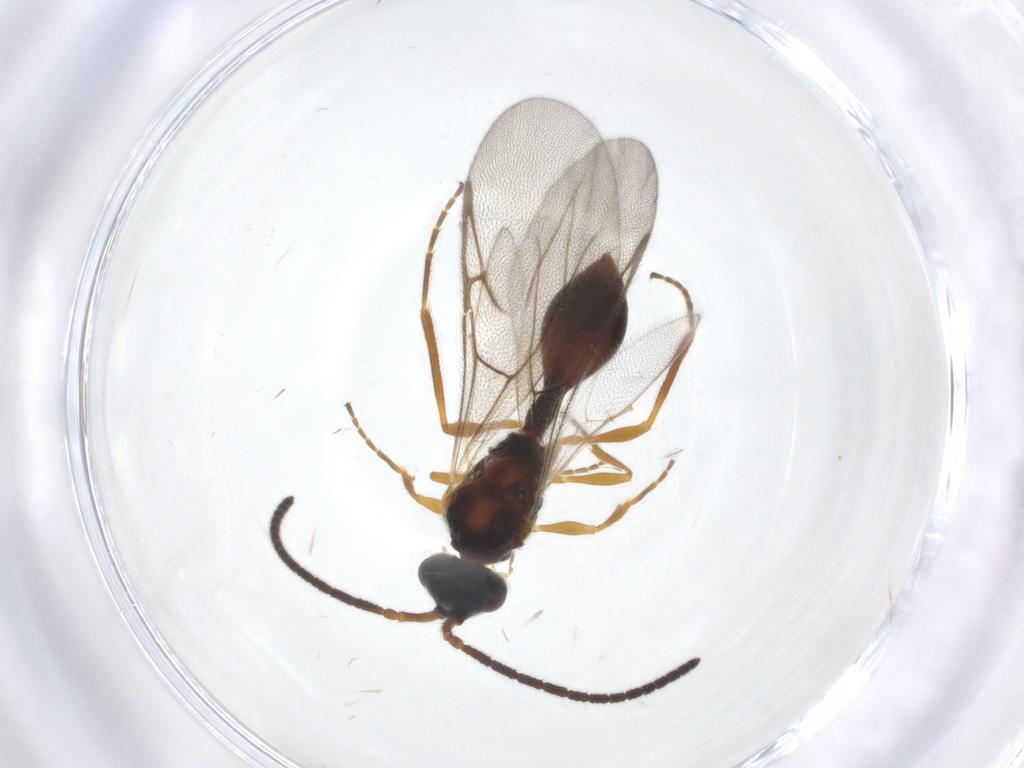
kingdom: Animalia
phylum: Arthropoda
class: Insecta
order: Hymenoptera
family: Diapriidae
